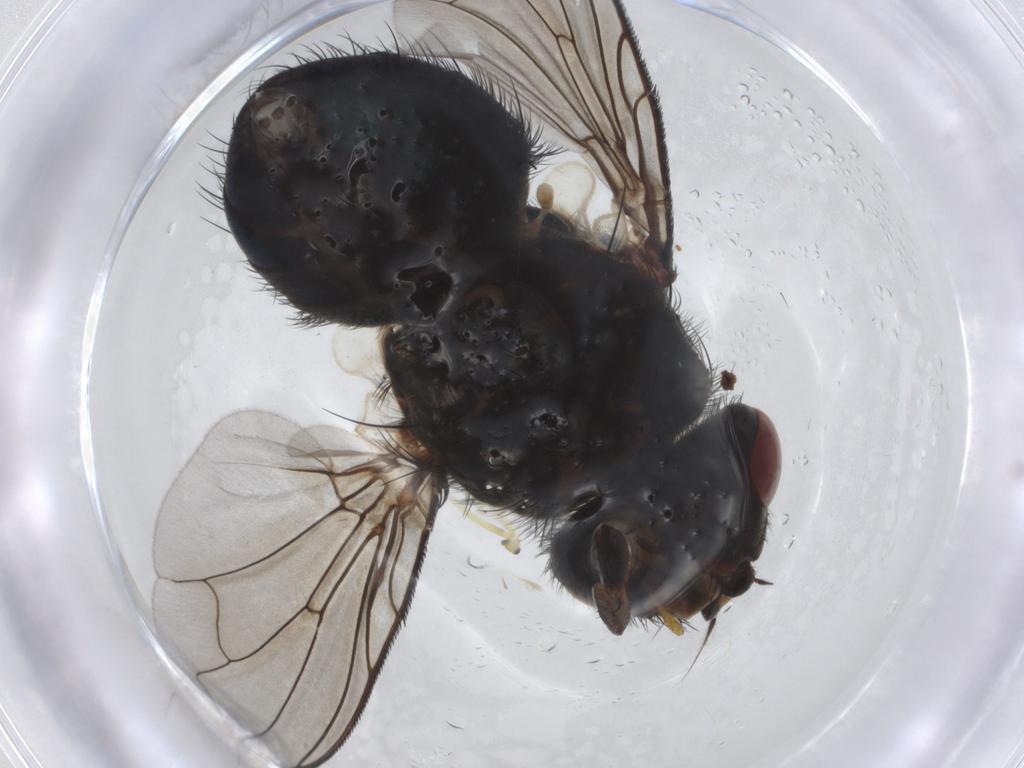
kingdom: Animalia
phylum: Arthropoda
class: Insecta
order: Diptera
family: Calliphoridae
